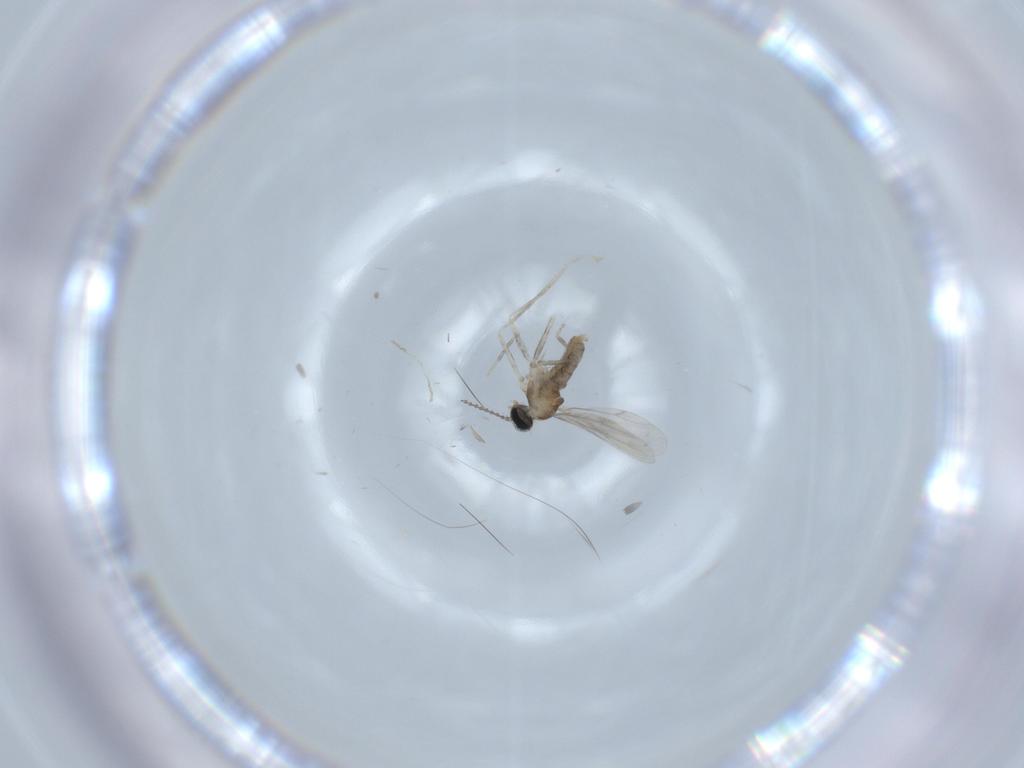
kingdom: Animalia
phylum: Arthropoda
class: Insecta
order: Diptera
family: Cecidomyiidae
